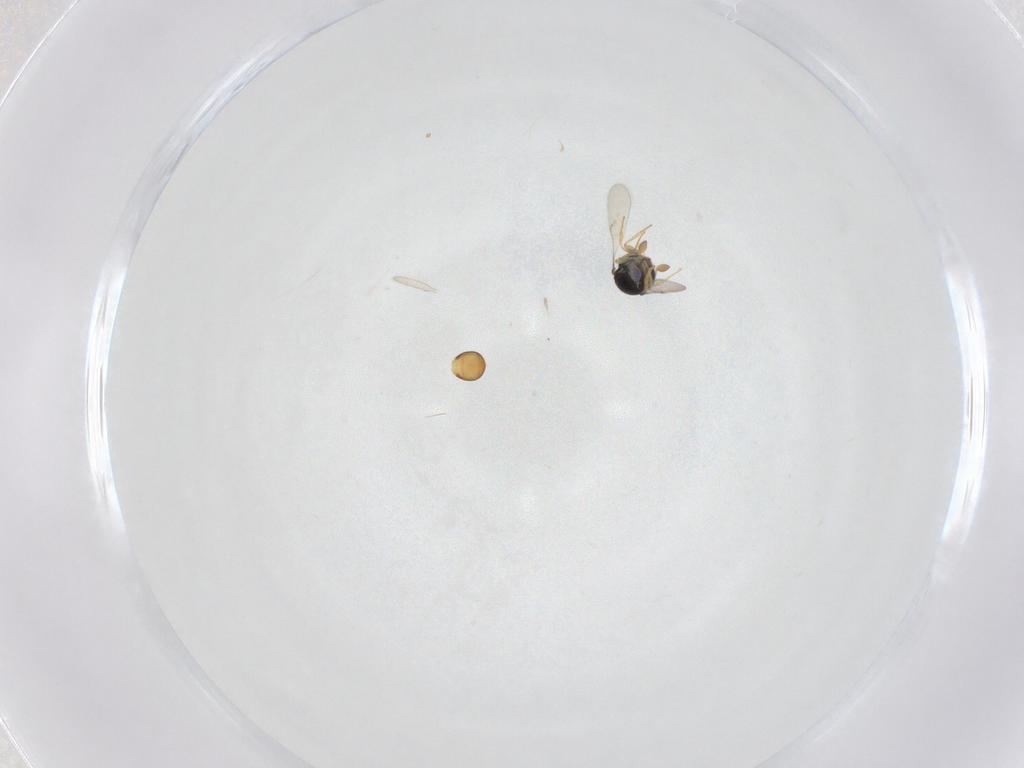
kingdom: Animalia
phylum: Arthropoda
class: Insecta
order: Hymenoptera
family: Scelionidae
